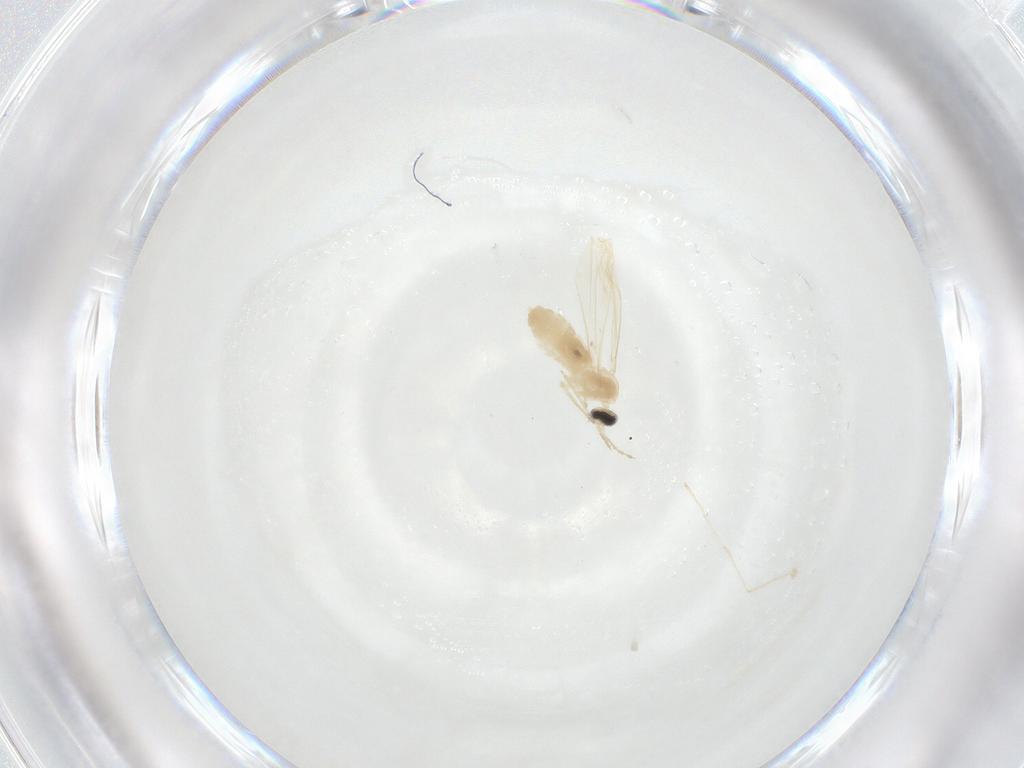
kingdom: Animalia
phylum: Arthropoda
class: Insecta
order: Diptera
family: Cecidomyiidae
